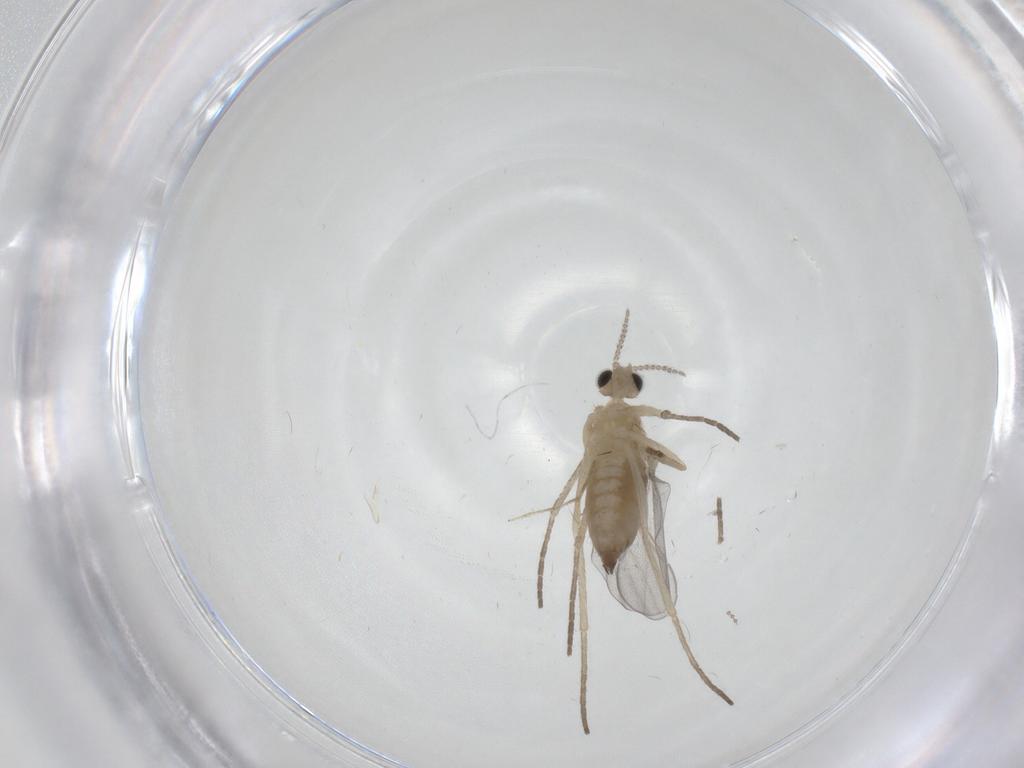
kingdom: Animalia
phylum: Arthropoda
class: Insecta
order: Diptera
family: Cecidomyiidae
